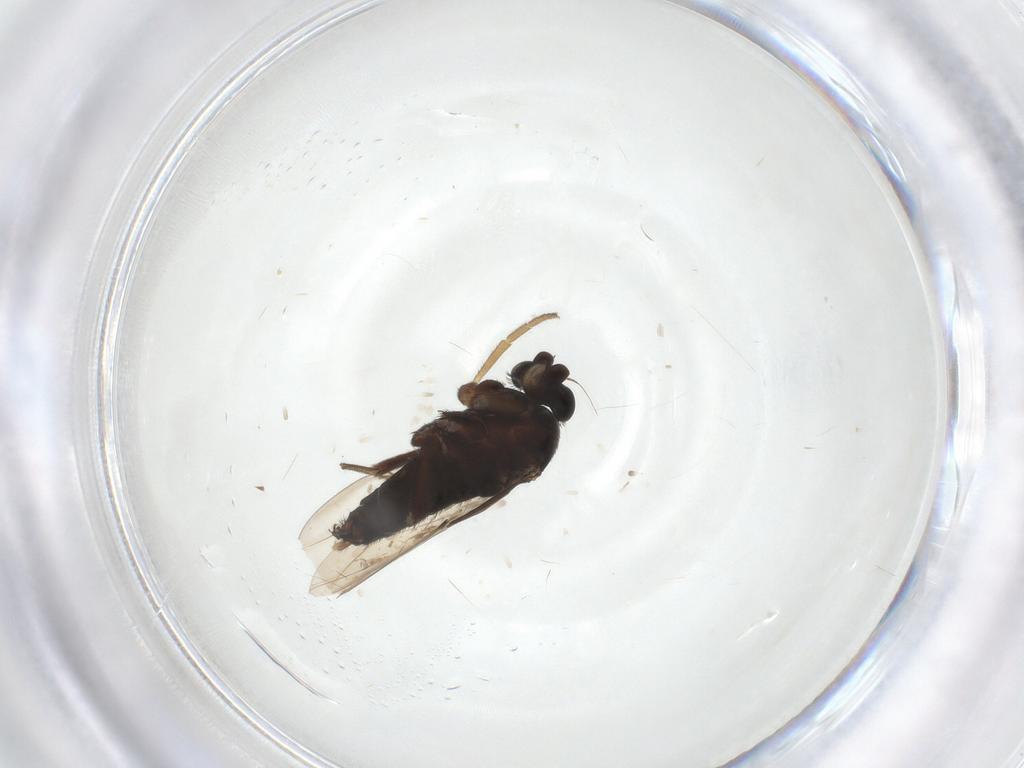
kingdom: Animalia
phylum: Arthropoda
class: Insecta
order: Diptera
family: Phoridae
